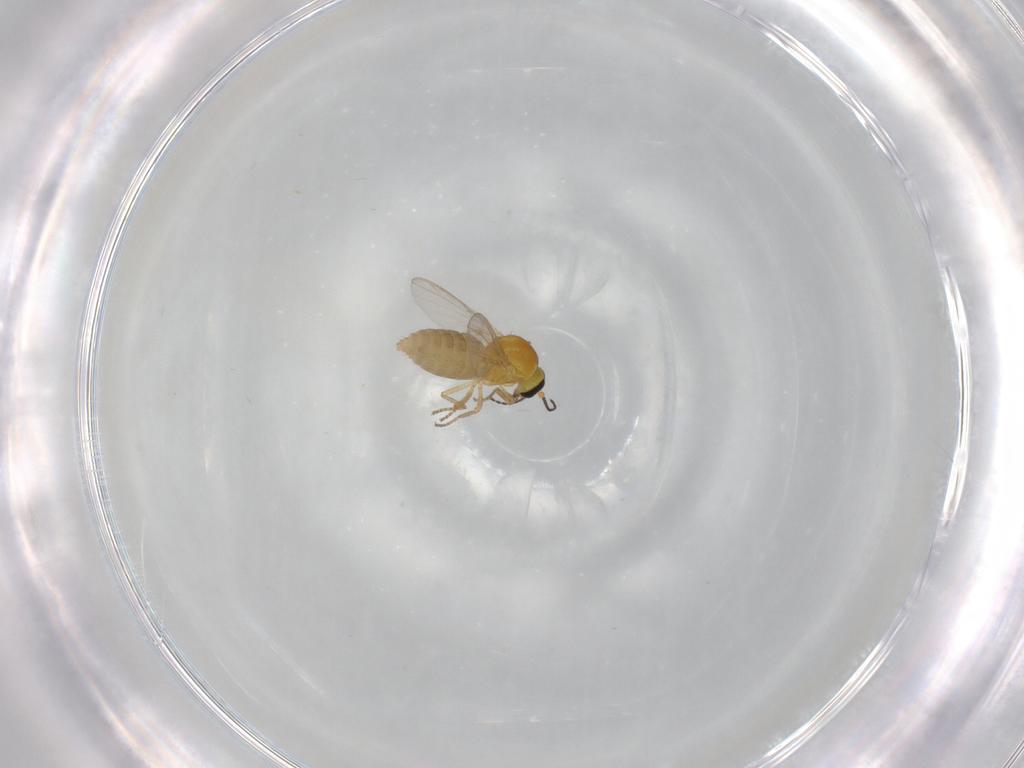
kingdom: Animalia
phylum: Arthropoda
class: Insecta
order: Diptera
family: Ceratopogonidae
